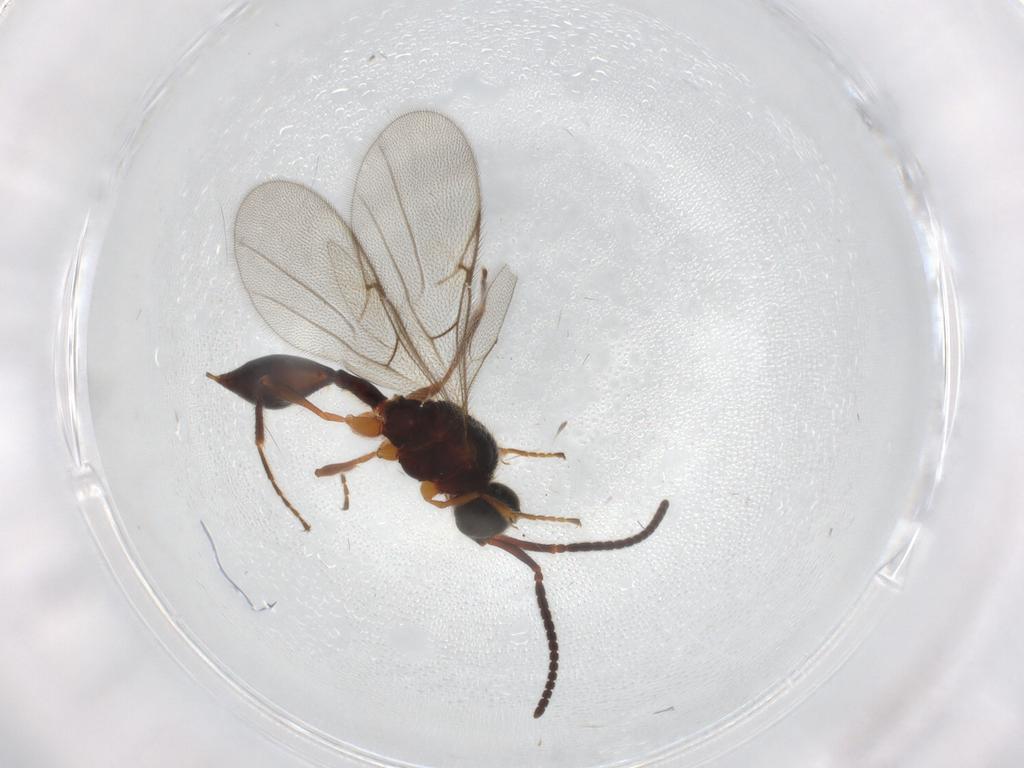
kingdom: Animalia
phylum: Arthropoda
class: Insecta
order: Hymenoptera
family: Diapriidae
